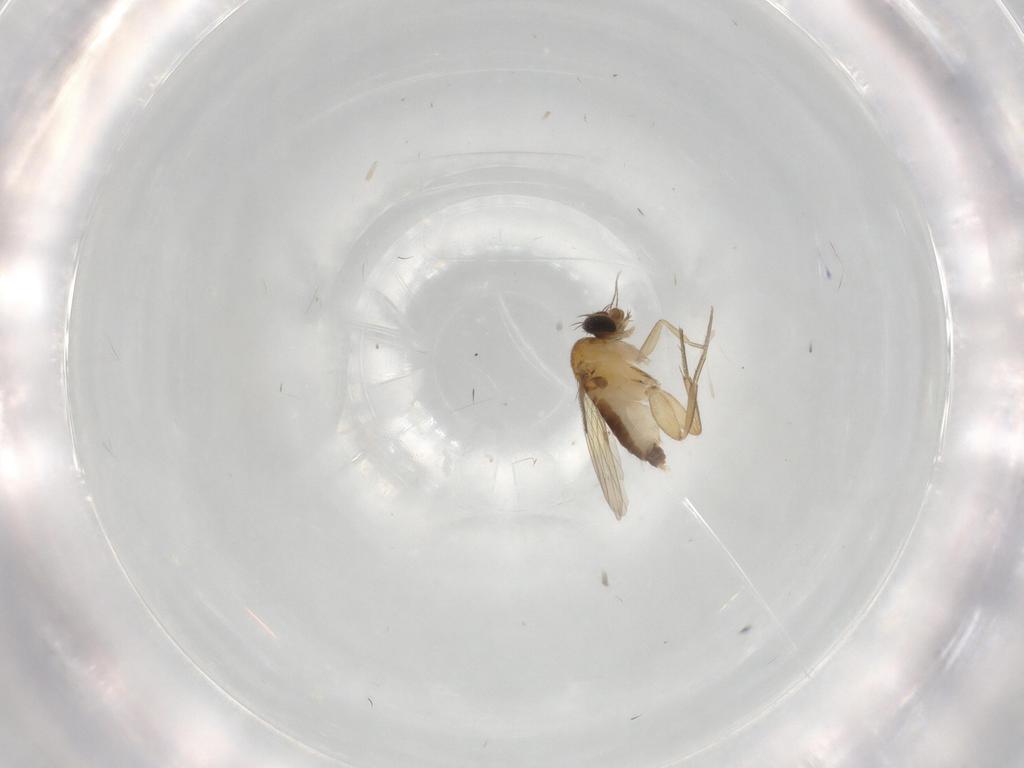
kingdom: Animalia
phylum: Arthropoda
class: Insecta
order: Diptera
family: Phoridae
